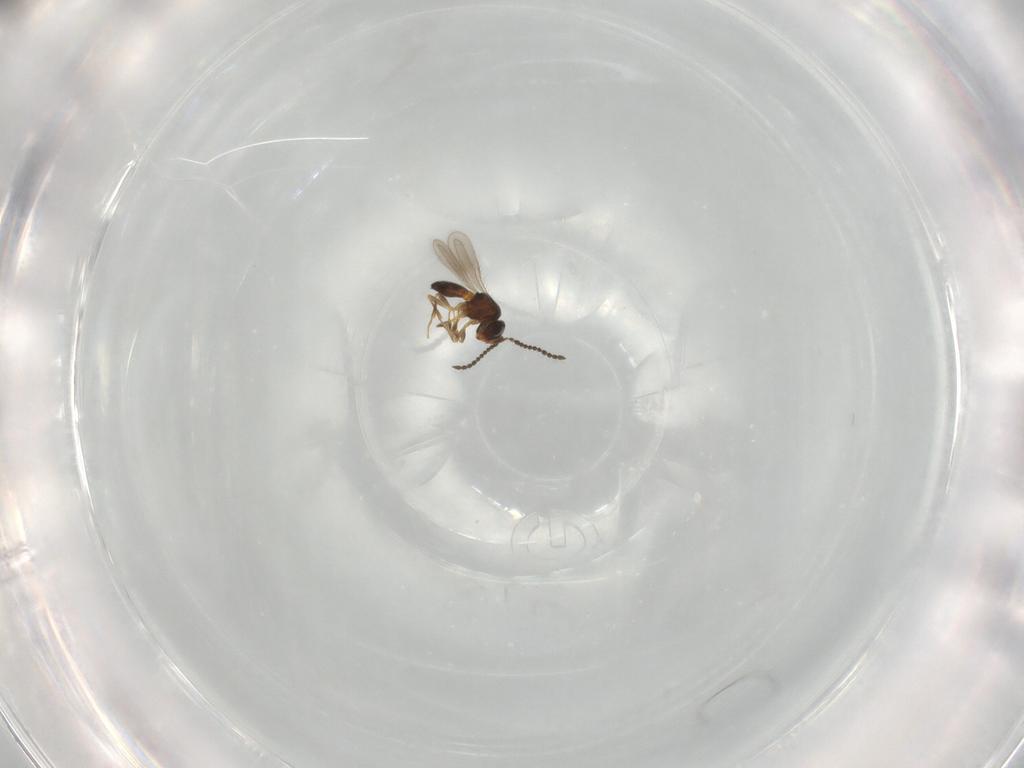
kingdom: Animalia
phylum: Arthropoda
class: Insecta
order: Hymenoptera
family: Scelionidae
